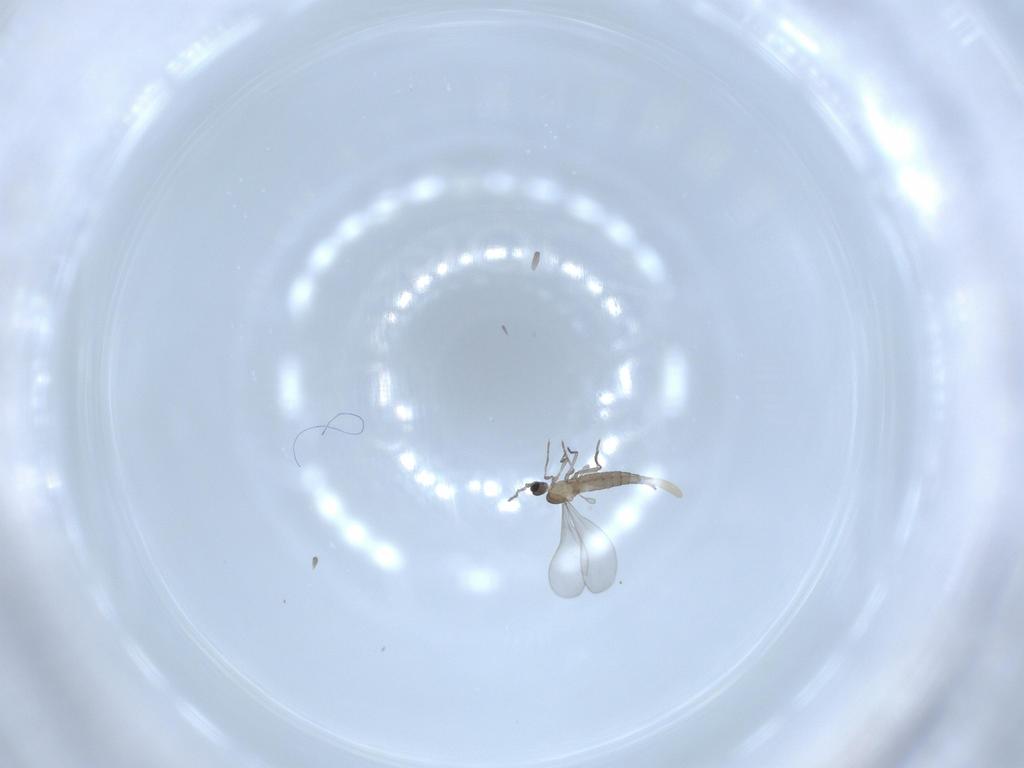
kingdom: Animalia
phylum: Arthropoda
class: Insecta
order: Diptera
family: Cecidomyiidae
